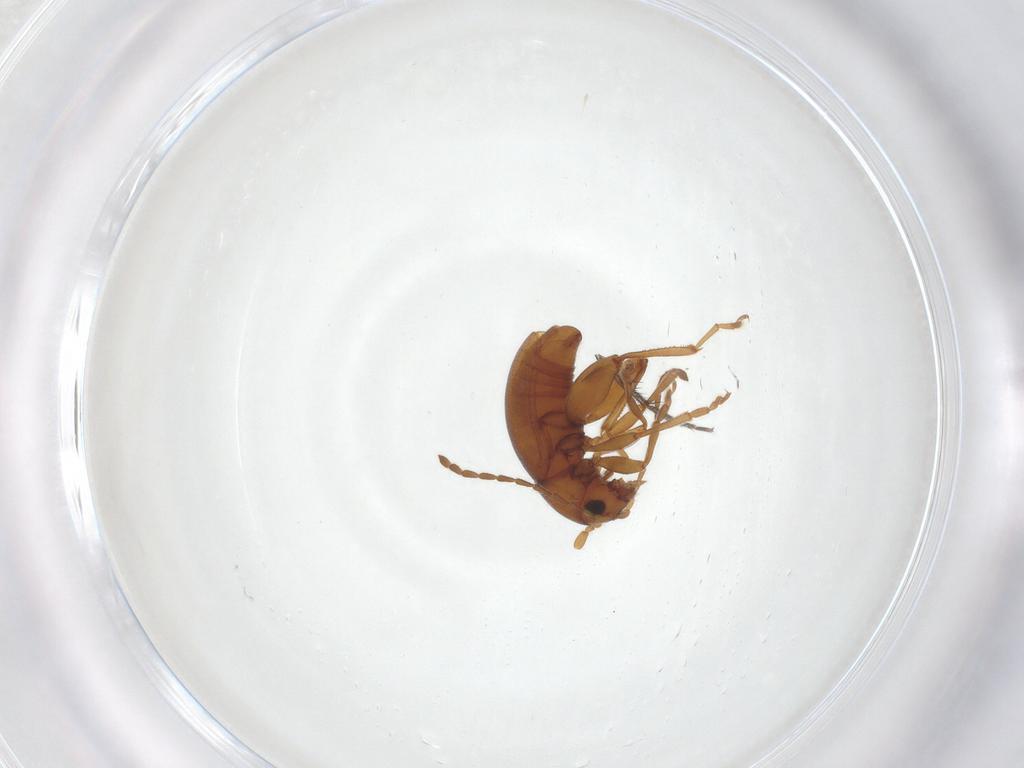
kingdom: Animalia
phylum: Arthropoda
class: Insecta
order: Coleoptera
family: Chrysomelidae
